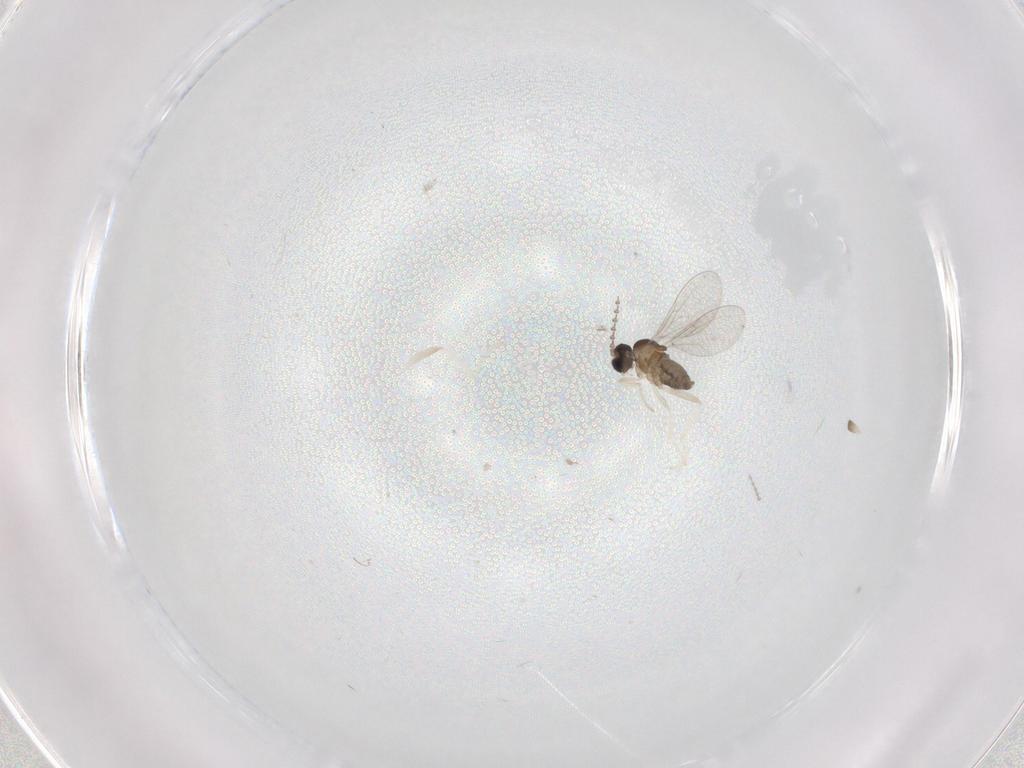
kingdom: Animalia
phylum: Arthropoda
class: Insecta
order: Diptera
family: Cecidomyiidae
